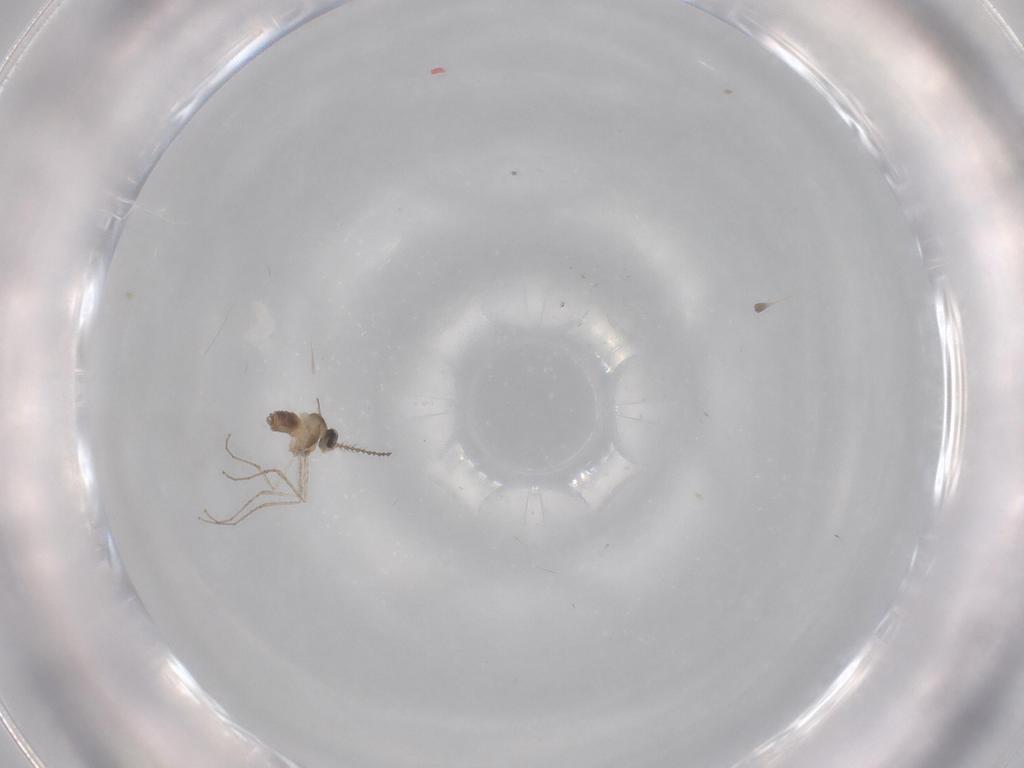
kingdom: Animalia
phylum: Arthropoda
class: Insecta
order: Diptera
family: Cecidomyiidae
